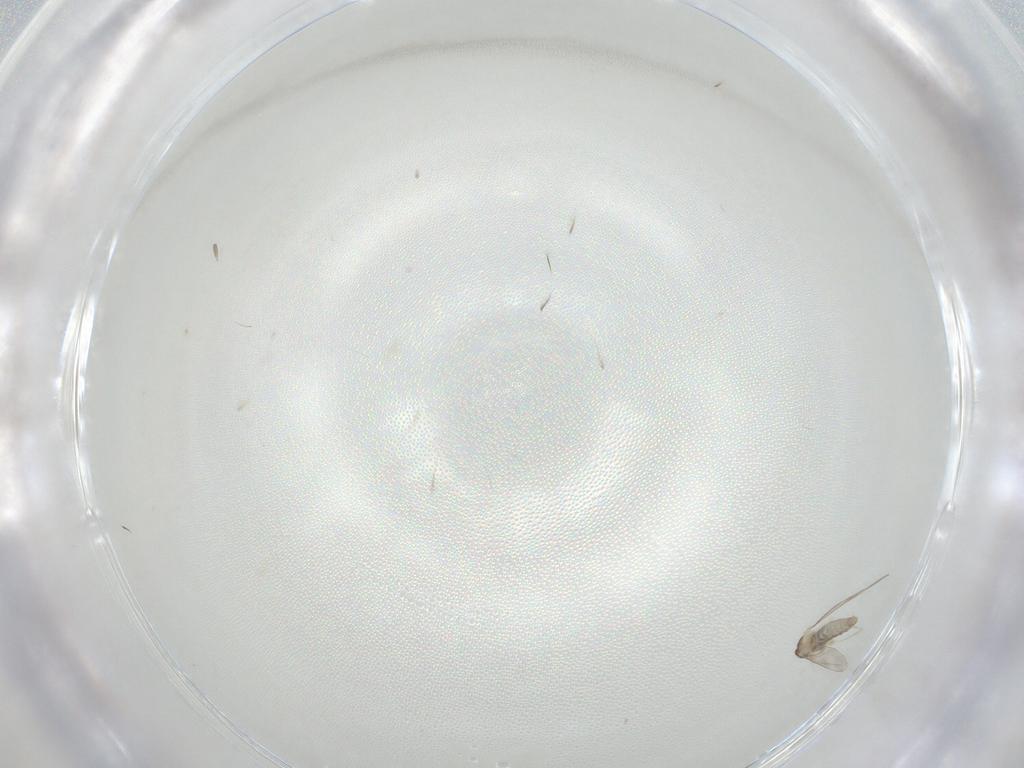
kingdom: Animalia
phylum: Arthropoda
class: Insecta
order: Diptera
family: Cecidomyiidae
